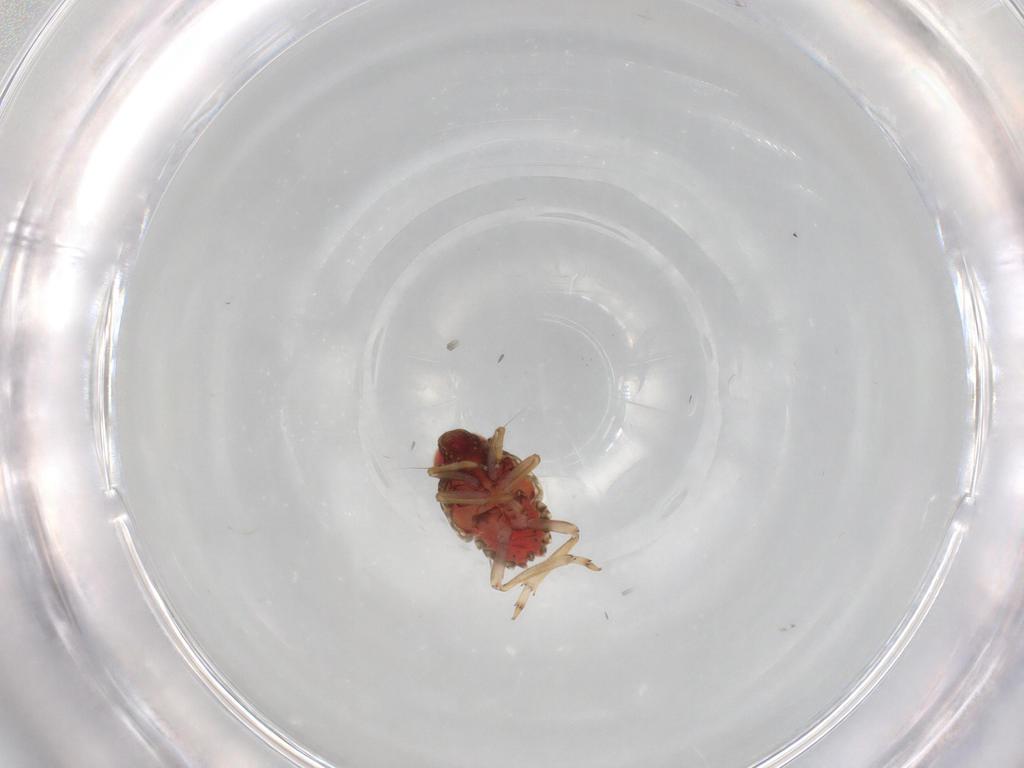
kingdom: Animalia
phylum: Arthropoda
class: Insecta
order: Hemiptera
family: Issidae
